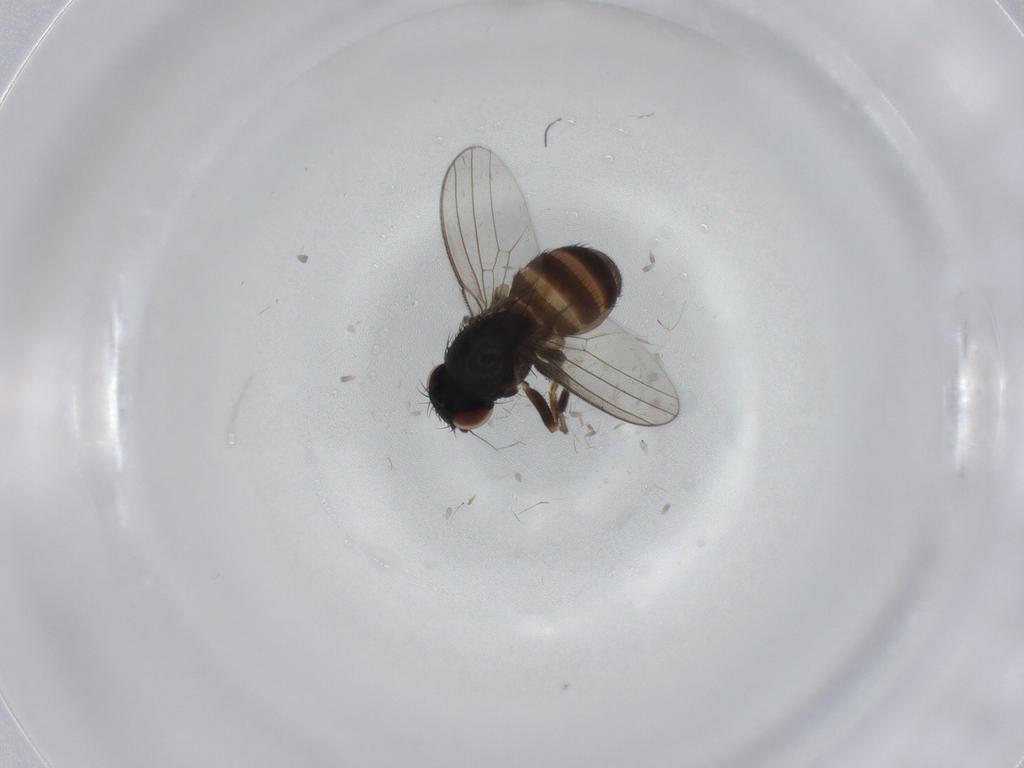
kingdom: Animalia
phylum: Arthropoda
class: Insecta
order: Diptera
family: Milichiidae
